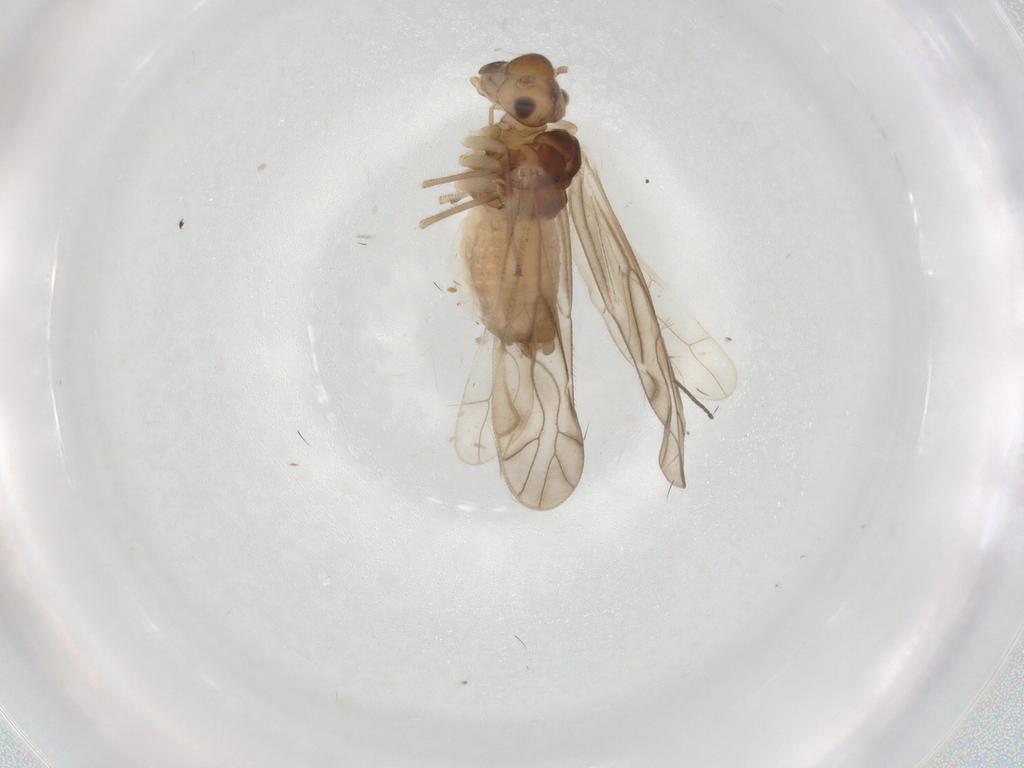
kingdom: Animalia
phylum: Arthropoda
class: Insecta
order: Psocodea
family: Philotarsidae
